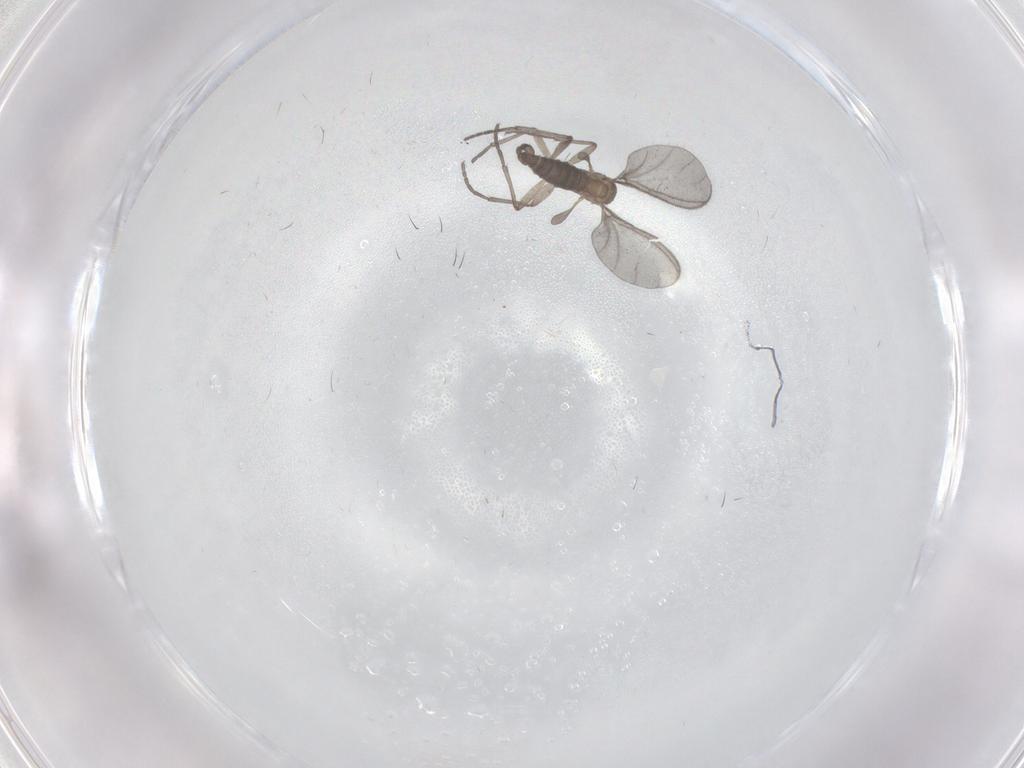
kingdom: Animalia
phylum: Arthropoda
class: Insecta
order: Diptera
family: Sciaridae
